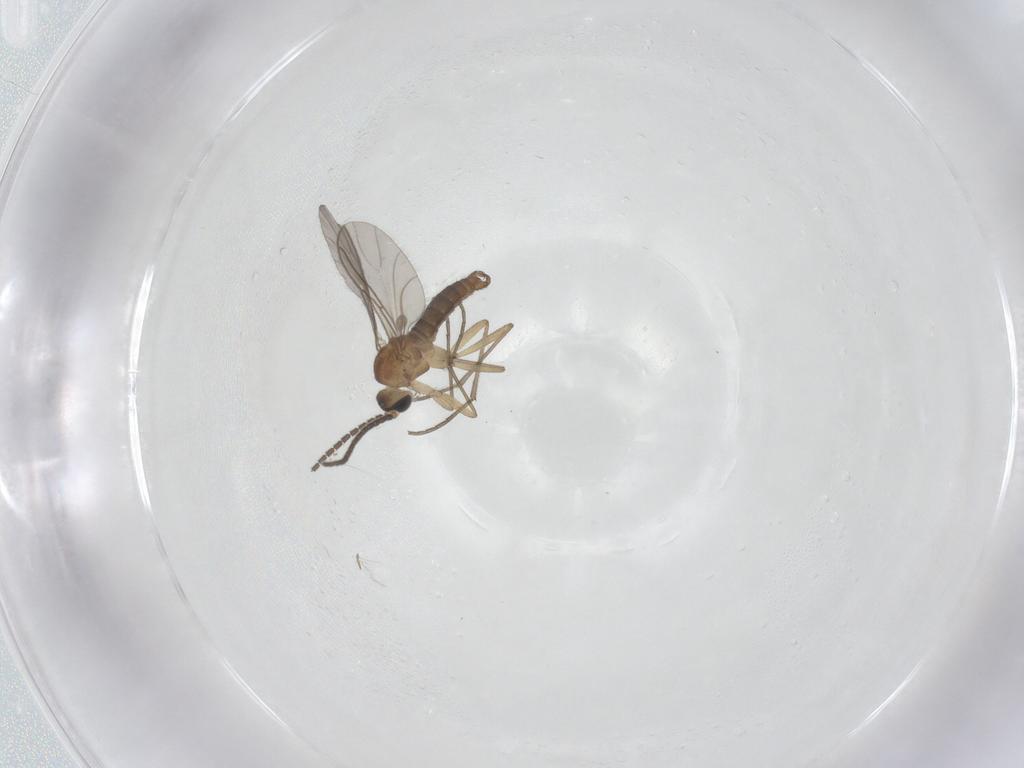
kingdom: Animalia
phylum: Arthropoda
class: Insecta
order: Diptera
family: Sciaridae
